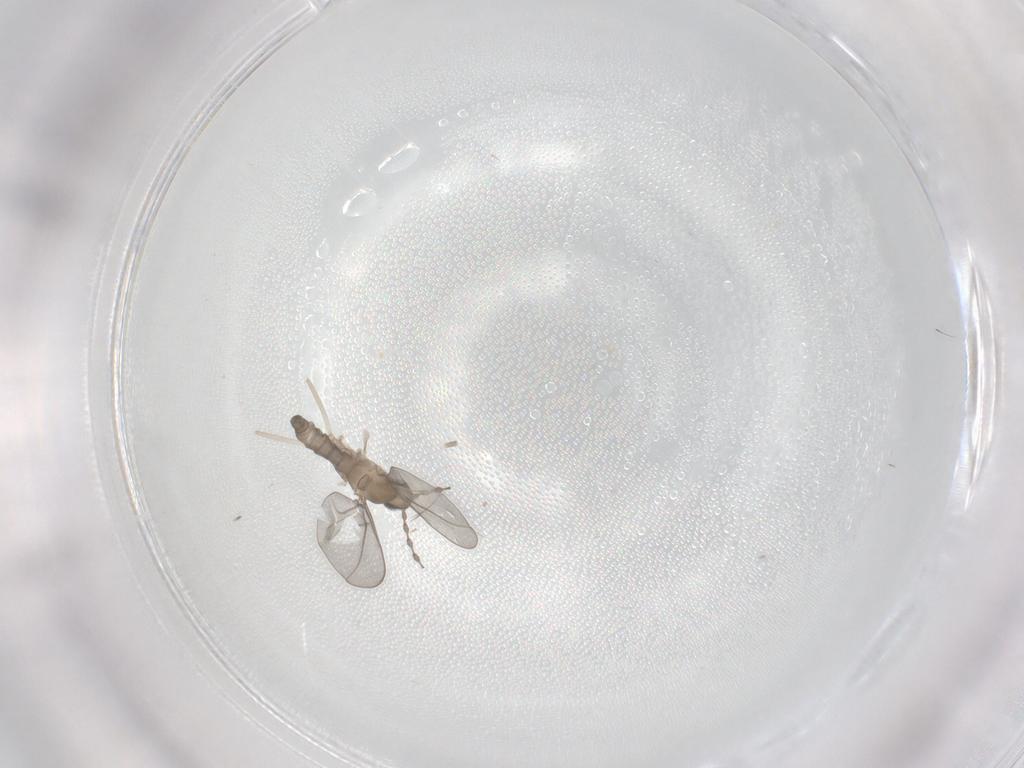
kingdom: Animalia
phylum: Arthropoda
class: Insecta
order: Diptera
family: Cecidomyiidae
